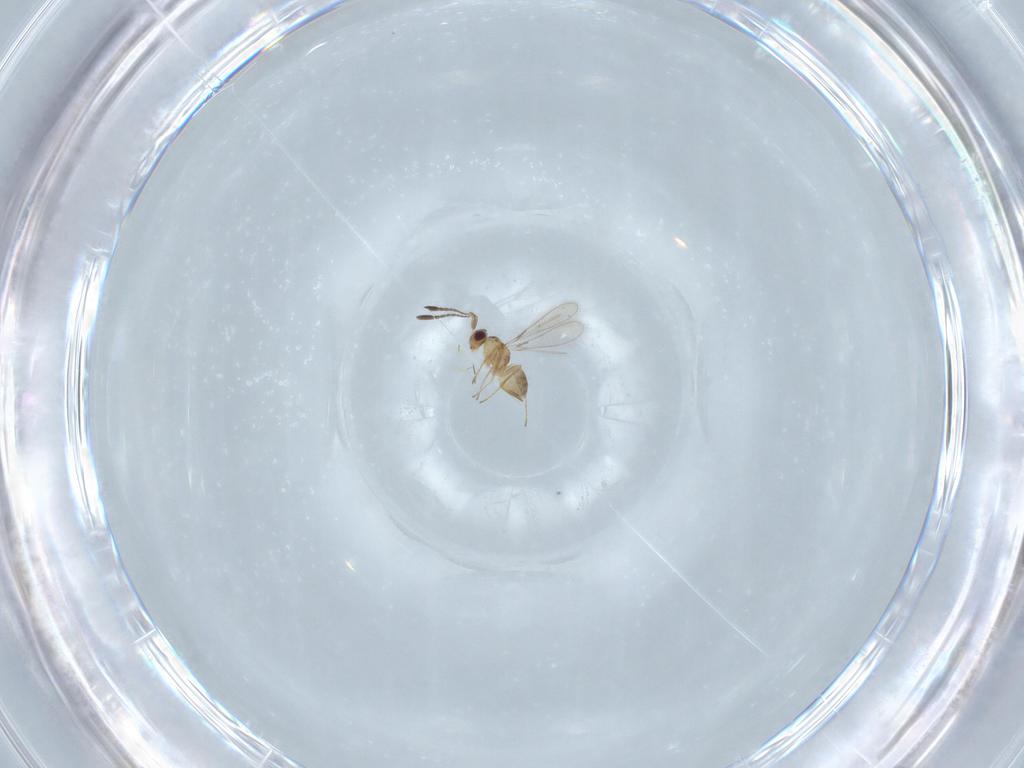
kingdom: Animalia
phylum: Arthropoda
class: Insecta
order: Hymenoptera
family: Mymaridae
